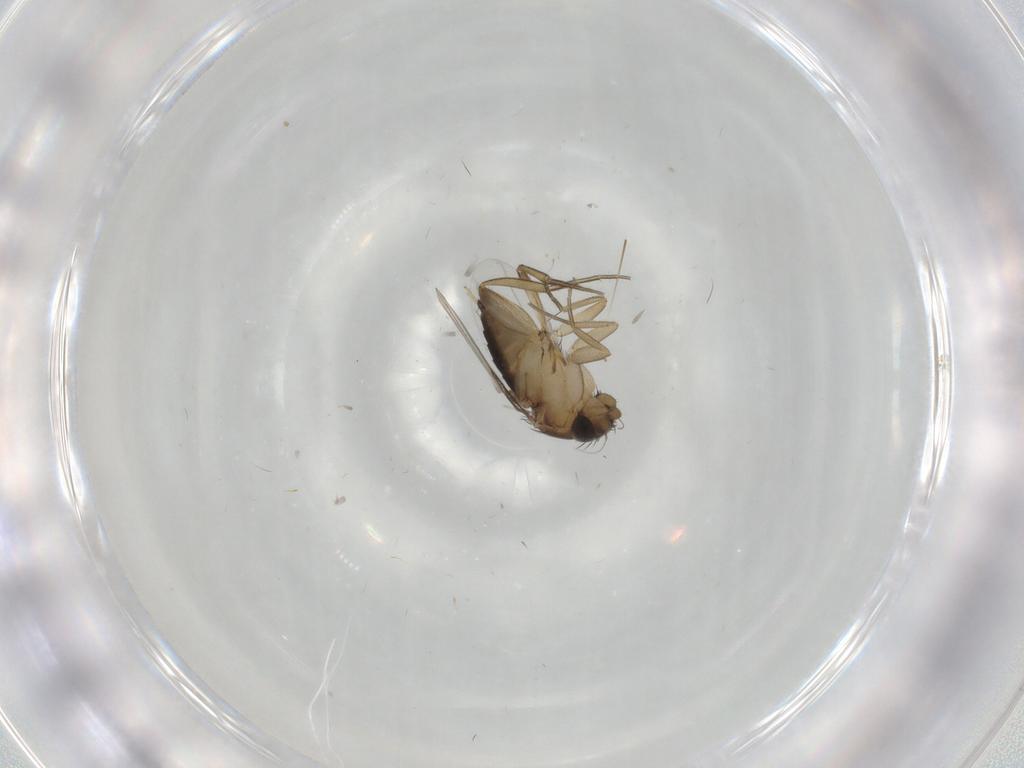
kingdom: Animalia
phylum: Arthropoda
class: Insecta
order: Diptera
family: Phoridae
